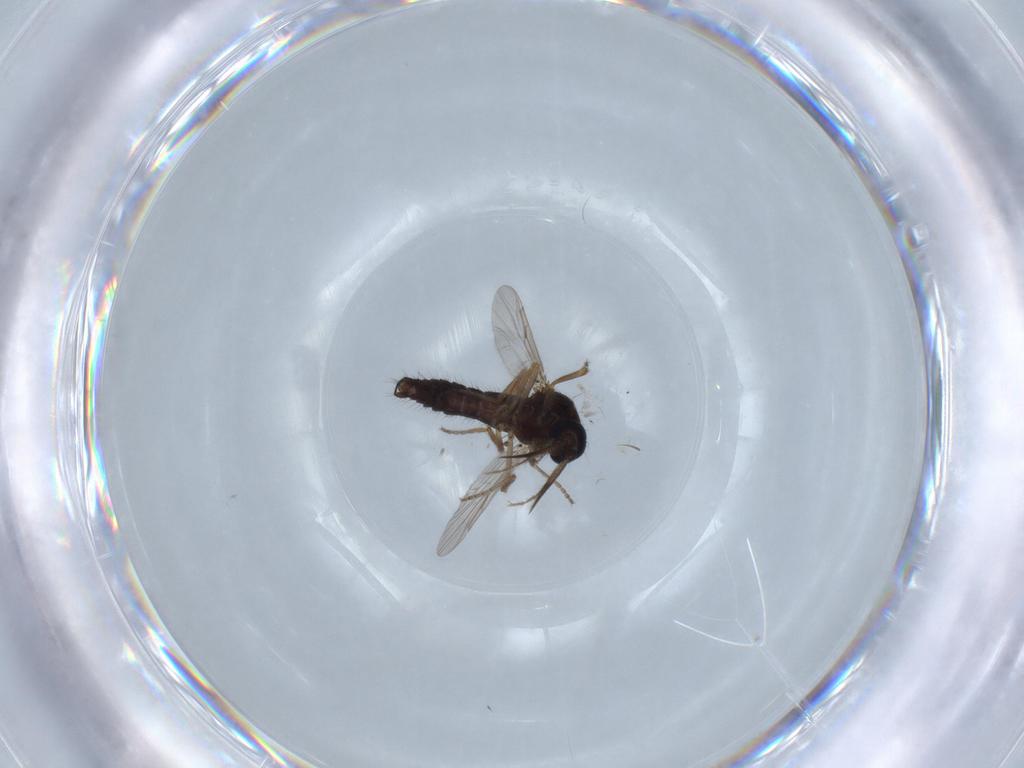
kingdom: Animalia
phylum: Arthropoda
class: Insecta
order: Diptera
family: Ceratopogonidae
